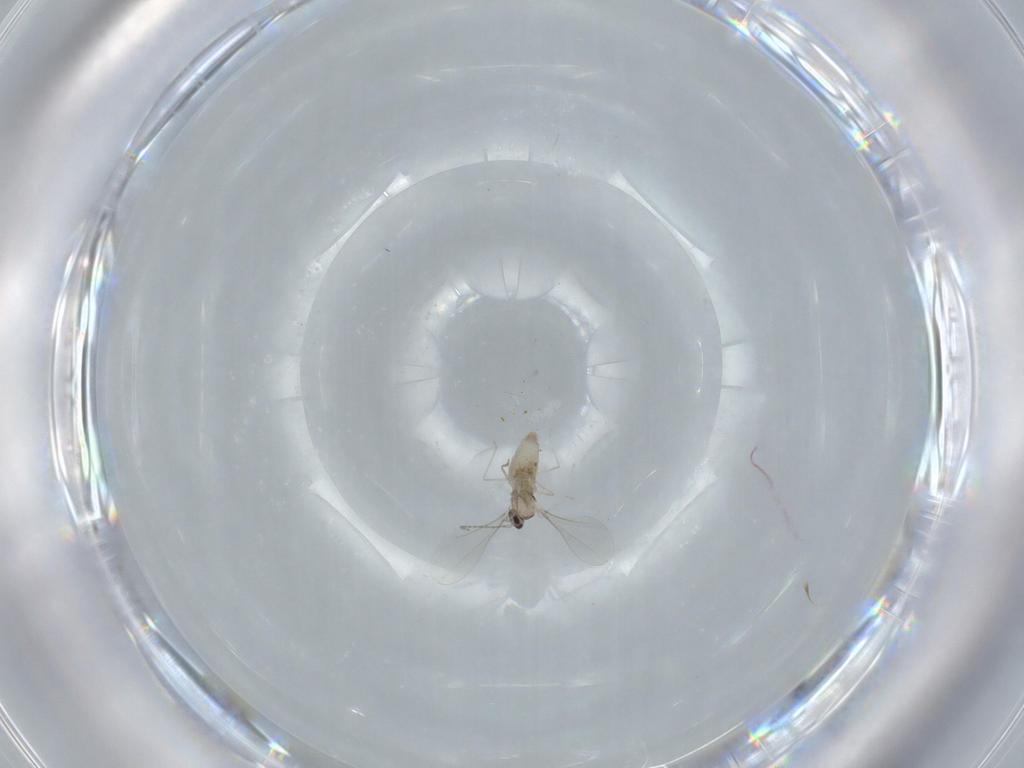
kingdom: Animalia
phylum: Arthropoda
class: Insecta
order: Diptera
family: Cecidomyiidae
